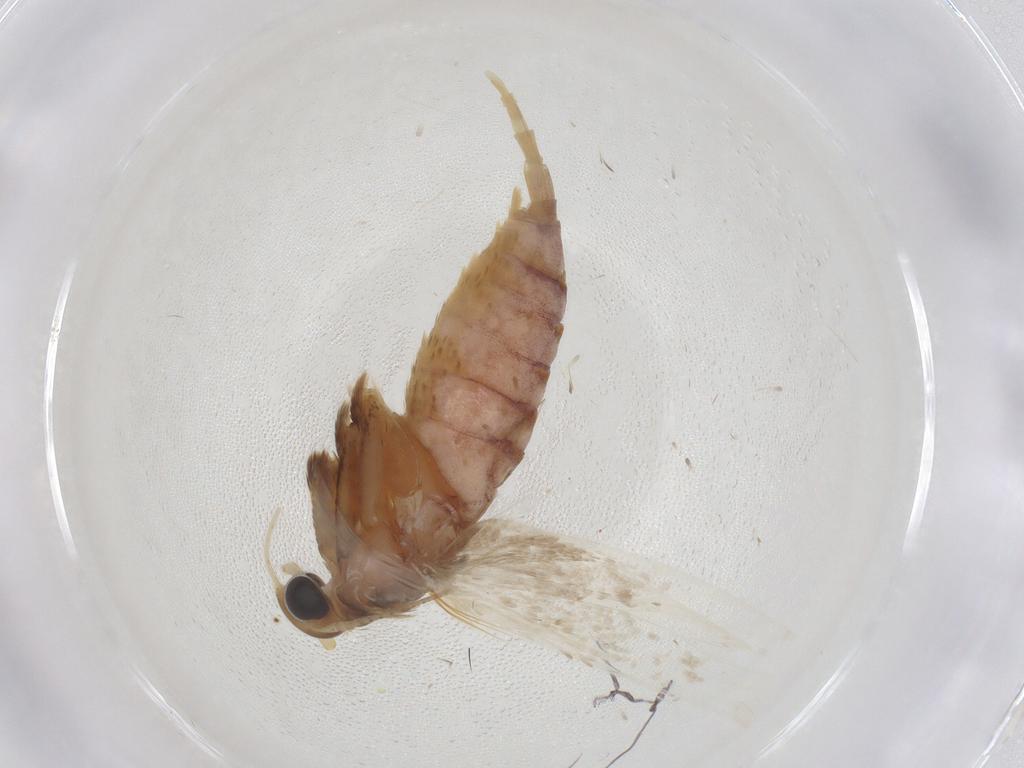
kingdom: Animalia
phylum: Arthropoda
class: Insecta
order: Lepidoptera
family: Blastobasidae
